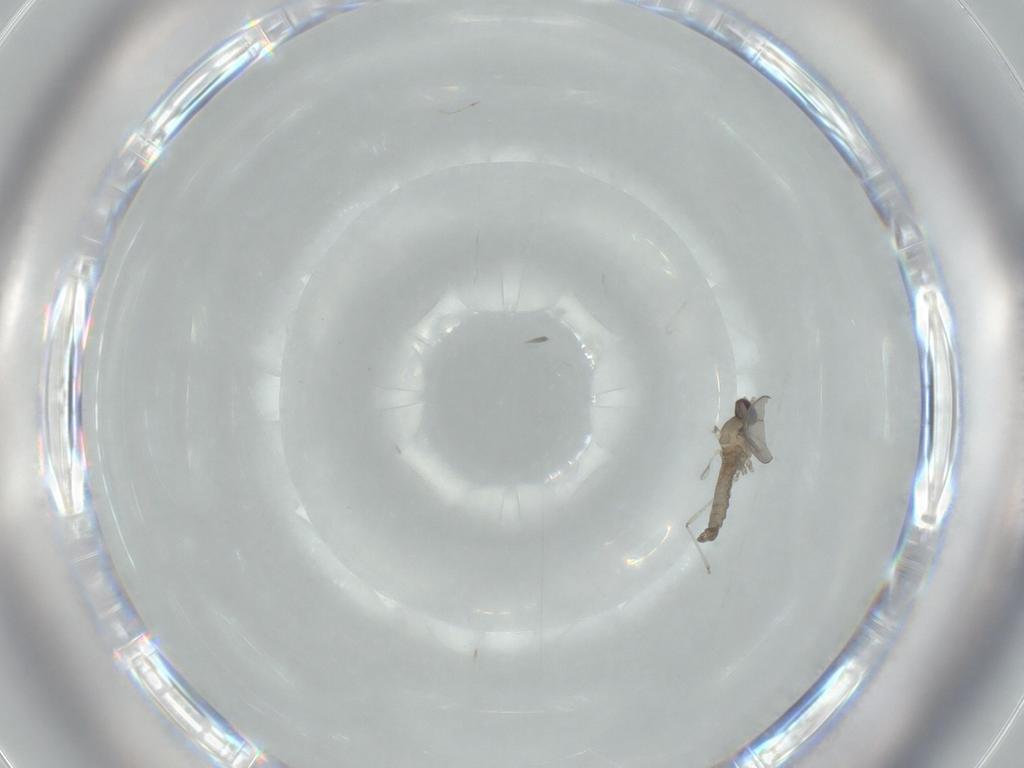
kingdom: Animalia
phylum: Arthropoda
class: Insecta
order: Diptera
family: Cecidomyiidae
